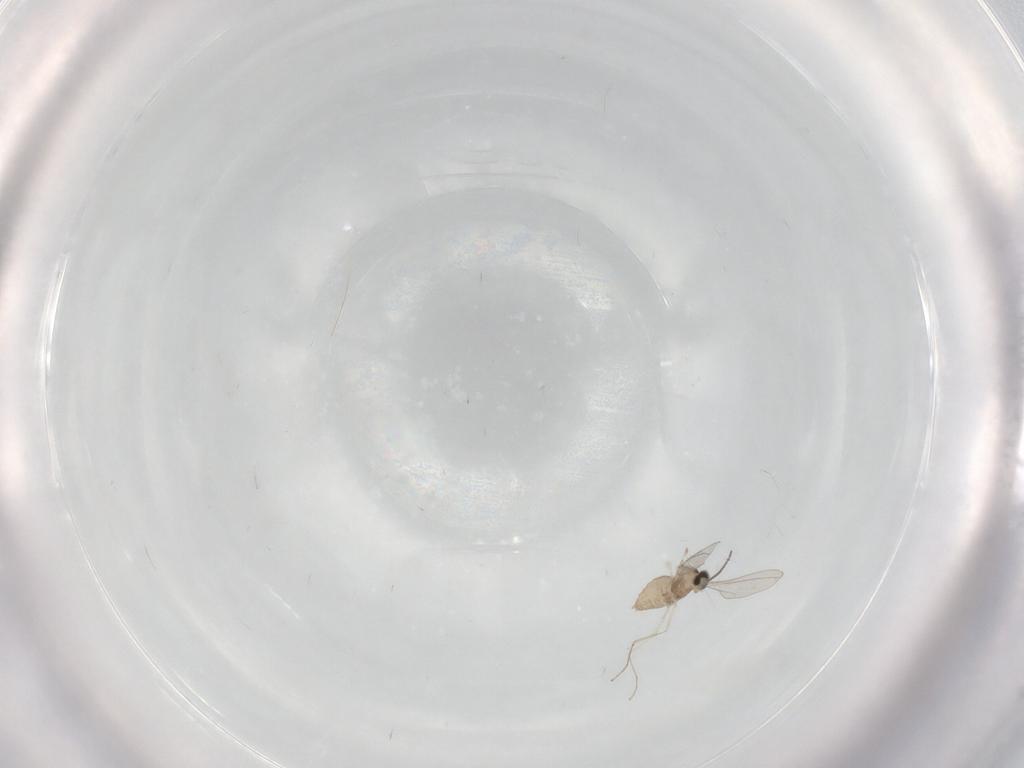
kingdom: Animalia
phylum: Arthropoda
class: Insecta
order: Diptera
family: Cecidomyiidae
